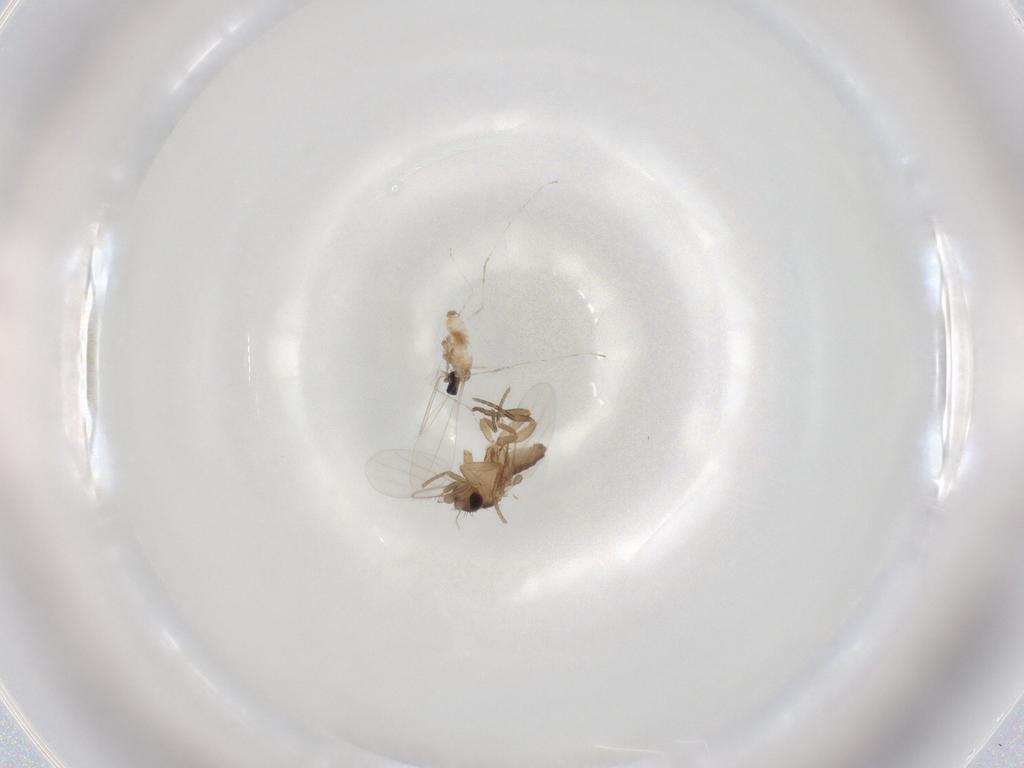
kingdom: Animalia
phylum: Arthropoda
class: Insecta
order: Diptera
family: Cecidomyiidae
